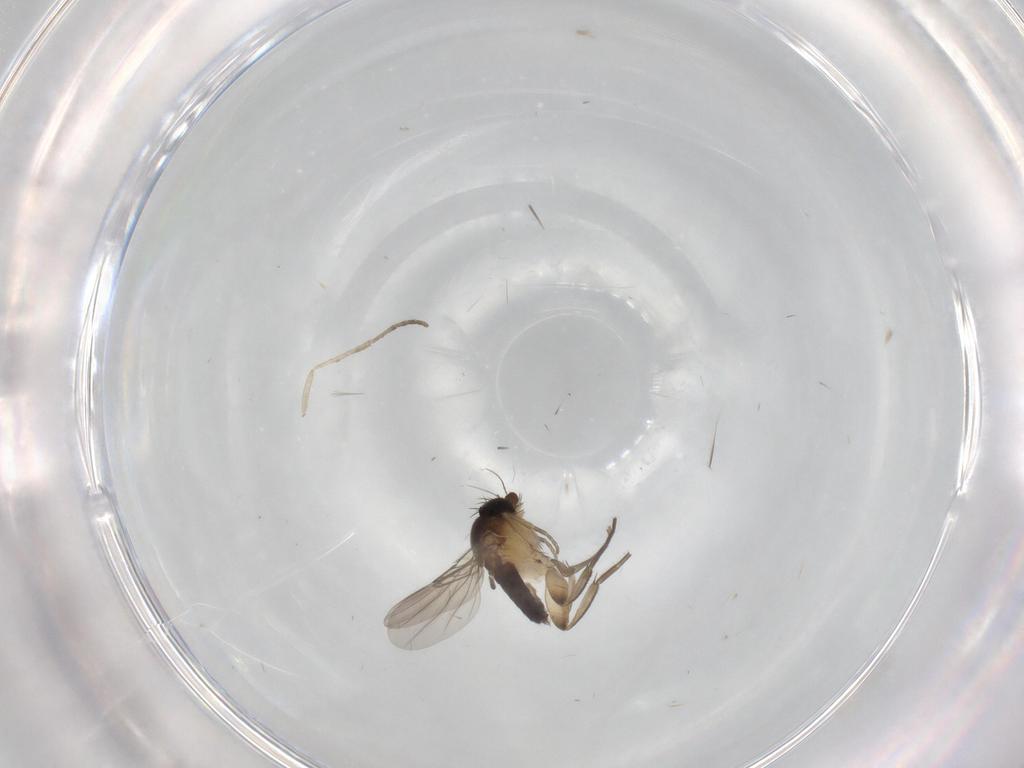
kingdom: Animalia
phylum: Arthropoda
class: Insecta
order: Diptera
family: Phoridae
